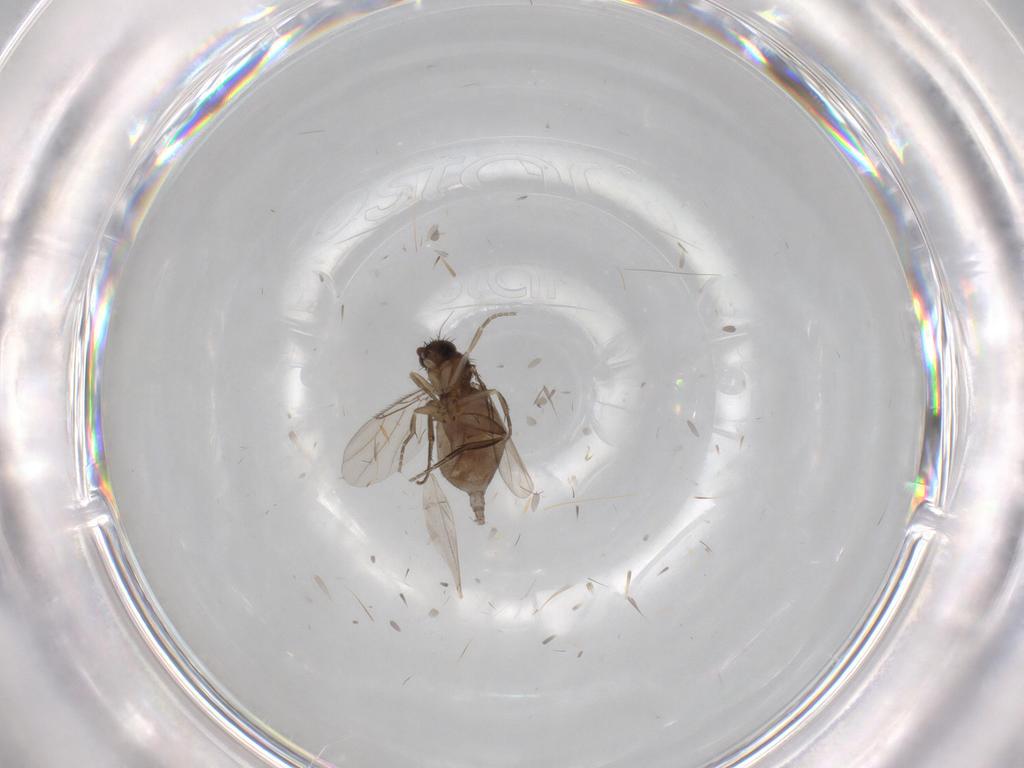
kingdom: Animalia
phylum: Arthropoda
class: Insecta
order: Diptera
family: Phoridae
